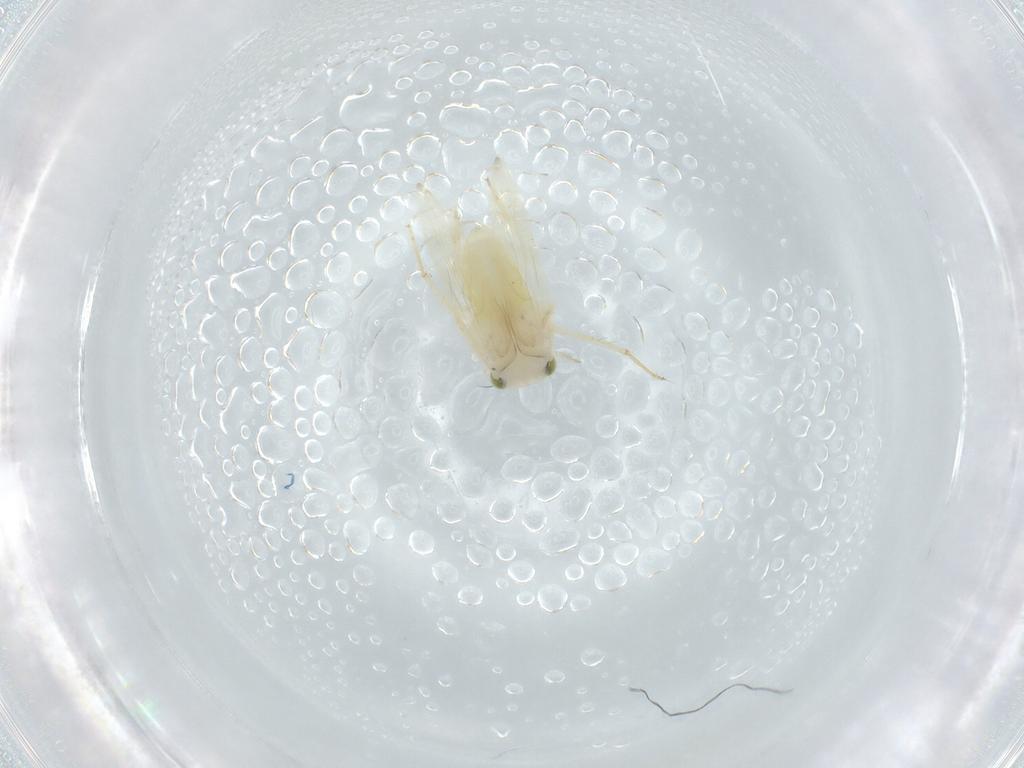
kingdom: Animalia
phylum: Arthropoda
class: Insecta
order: Psocodea
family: Lepidopsocidae
